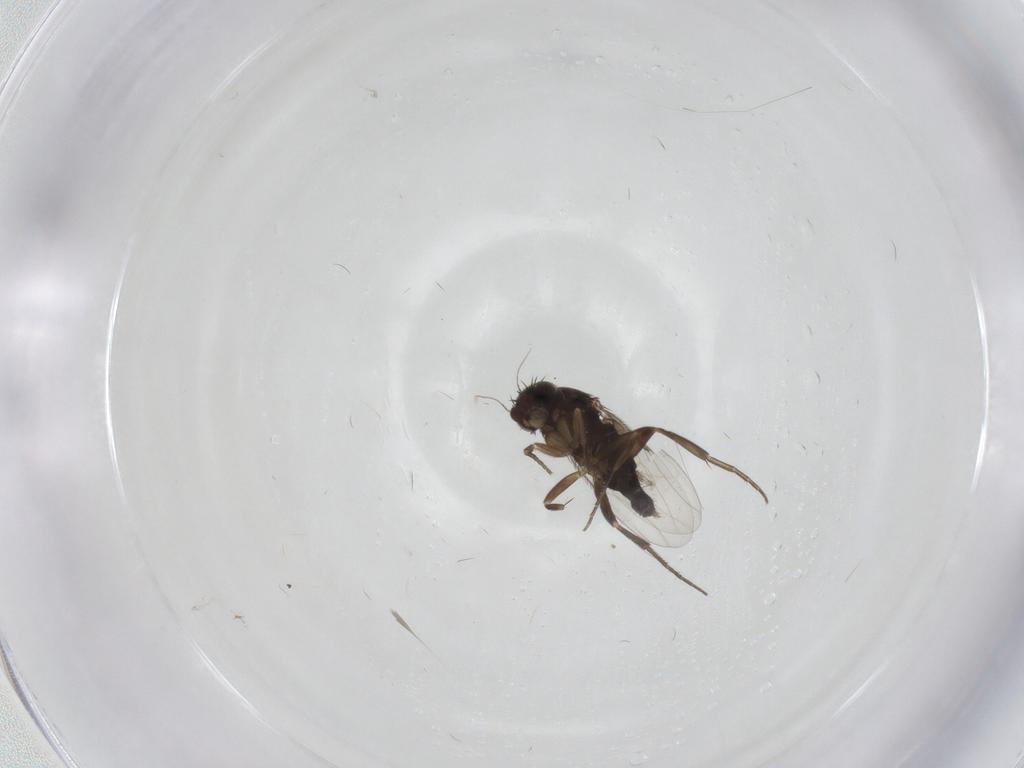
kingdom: Animalia
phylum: Arthropoda
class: Insecta
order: Diptera
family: Phoridae
